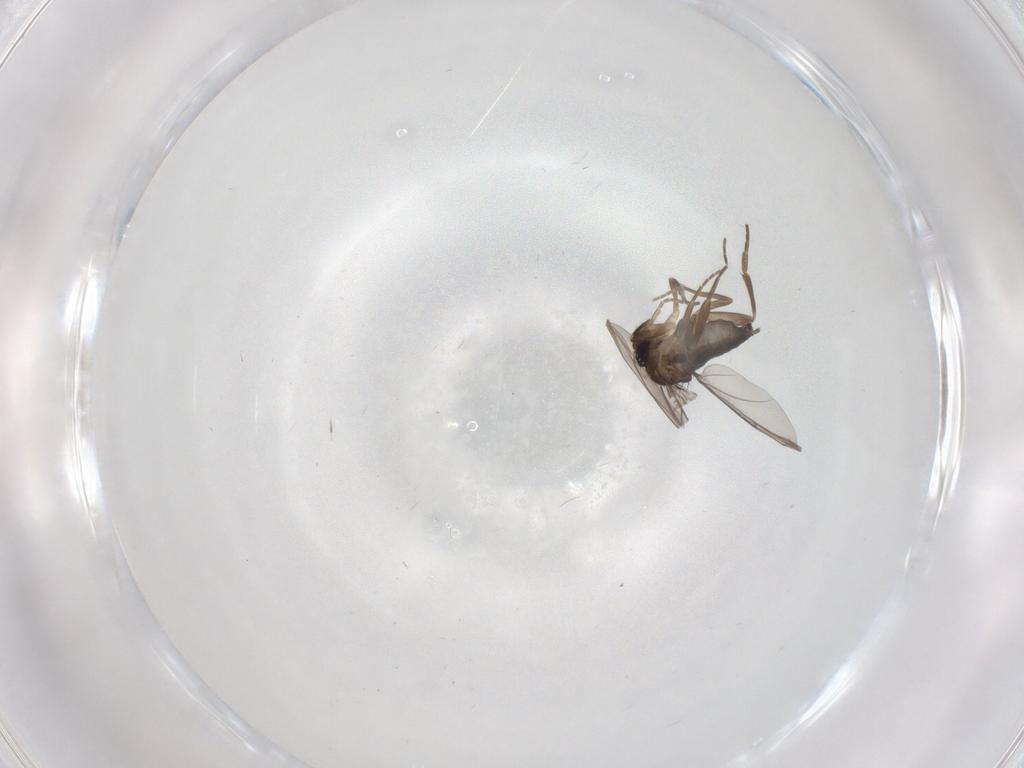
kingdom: Animalia
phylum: Arthropoda
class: Insecta
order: Diptera
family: Phoridae
